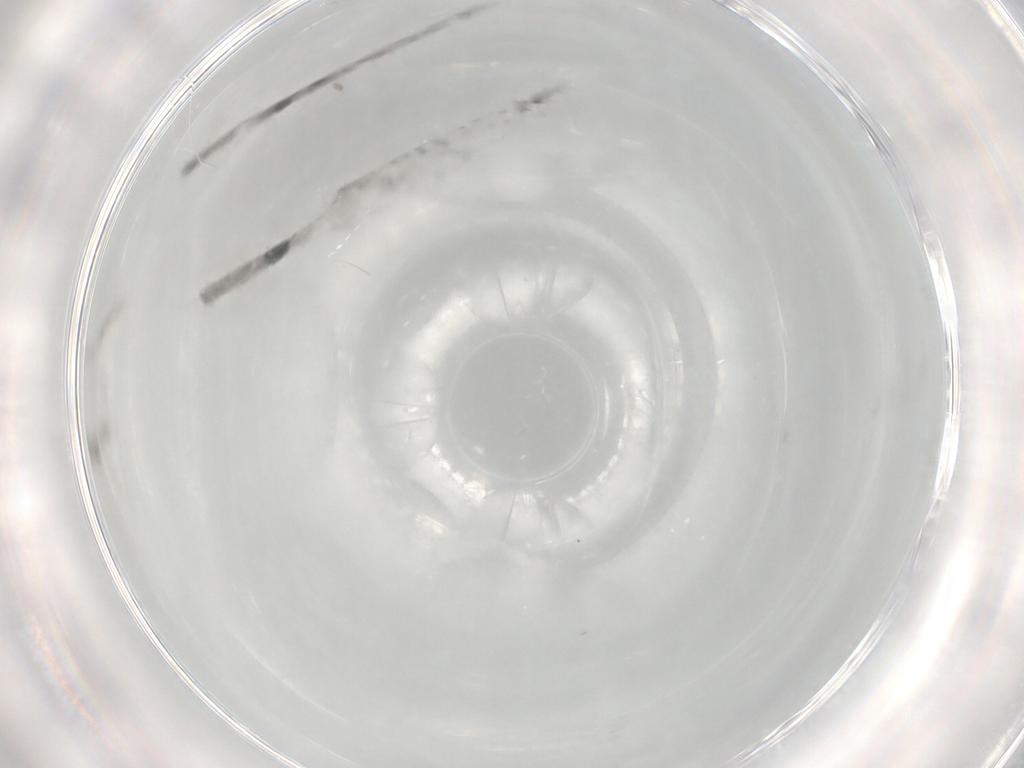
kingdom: Animalia
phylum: Arthropoda
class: Insecta
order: Diptera
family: Cecidomyiidae
